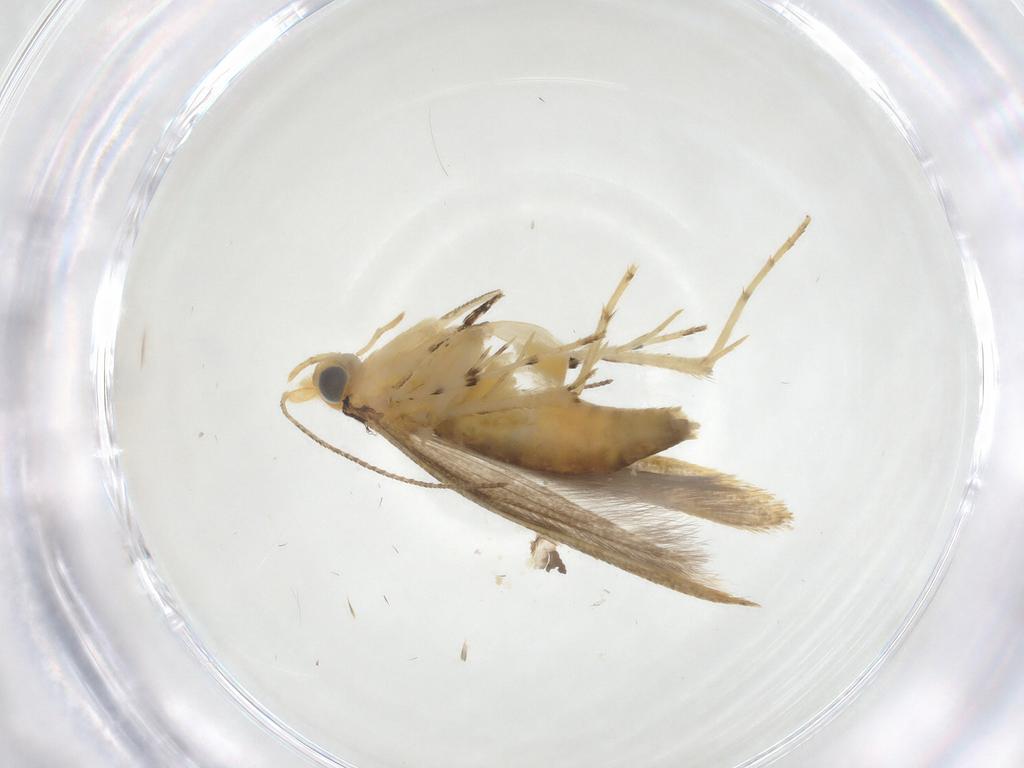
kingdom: Animalia
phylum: Arthropoda
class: Insecta
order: Lepidoptera
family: Argyresthiidae
